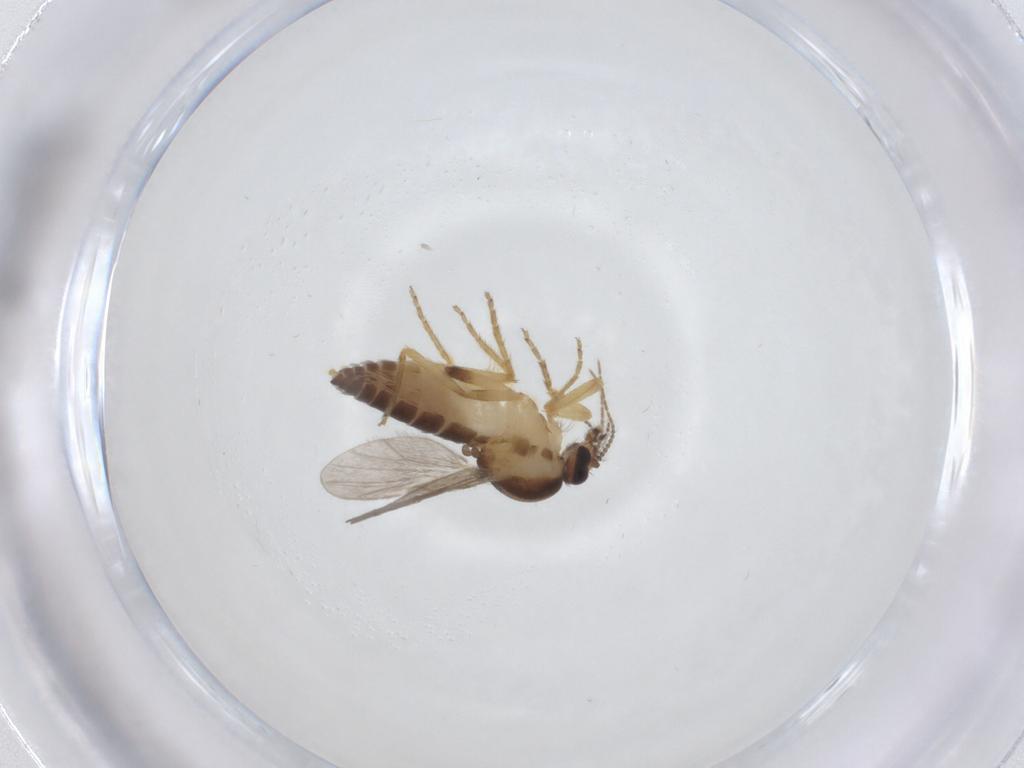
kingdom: Animalia
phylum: Arthropoda
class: Insecta
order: Diptera
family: Ceratopogonidae
